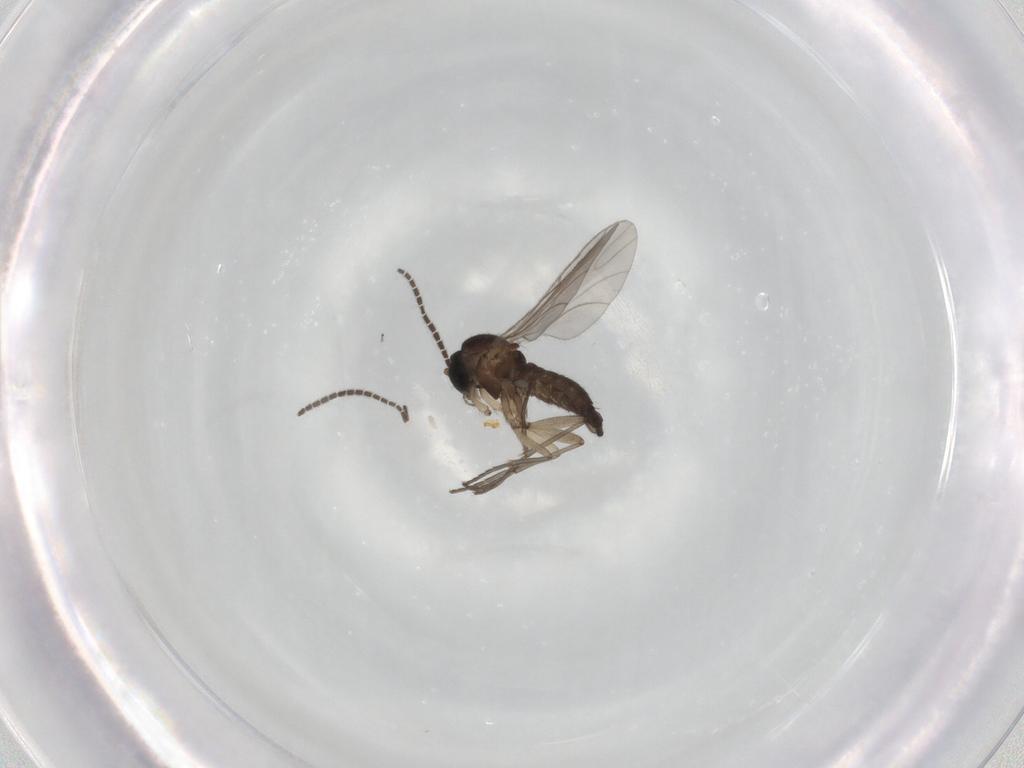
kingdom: Animalia
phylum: Arthropoda
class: Insecta
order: Diptera
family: Sciaridae
